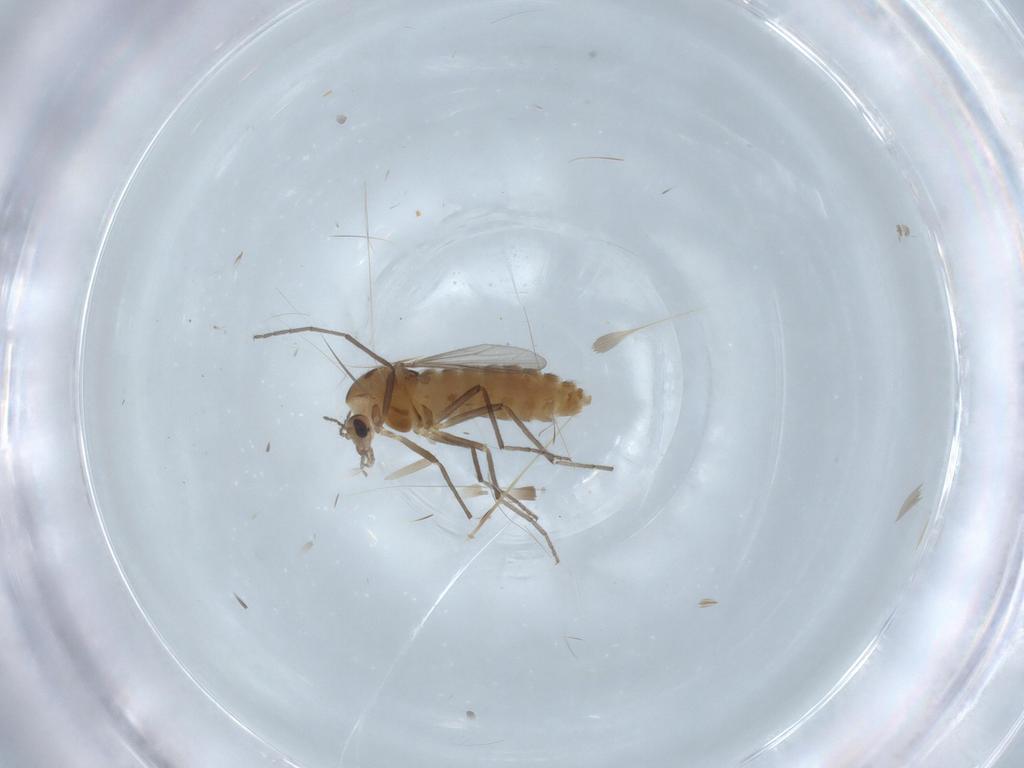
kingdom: Animalia
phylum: Arthropoda
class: Insecta
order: Diptera
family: Chironomidae
